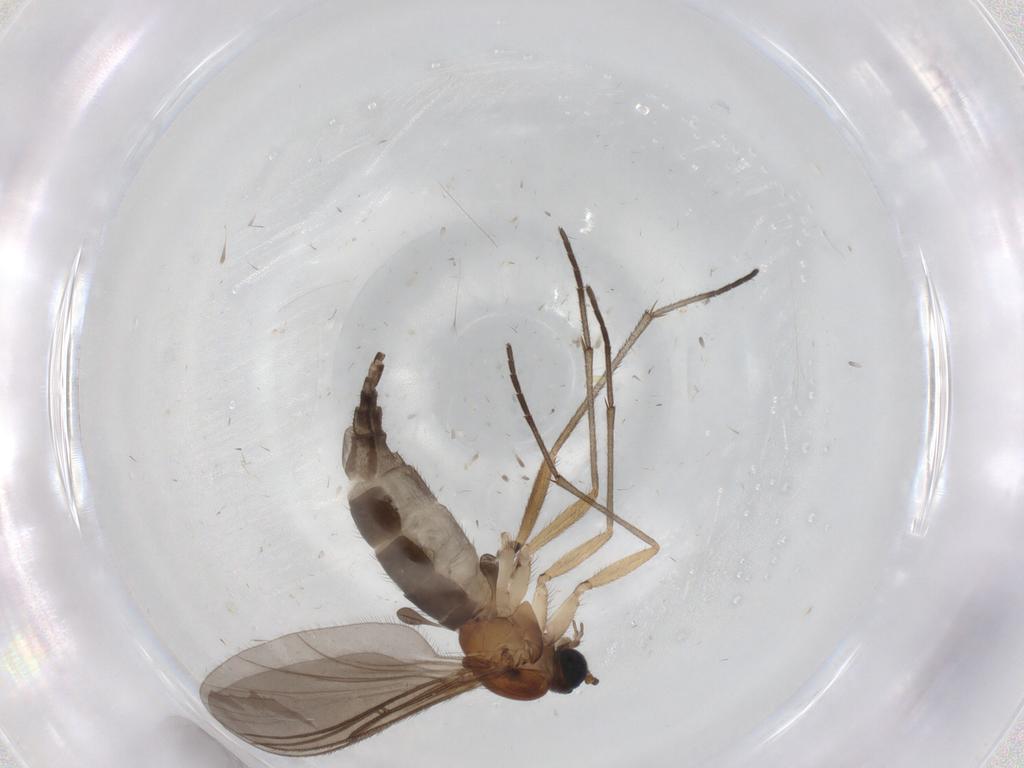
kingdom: Animalia
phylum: Arthropoda
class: Insecta
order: Diptera
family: Sciaridae
